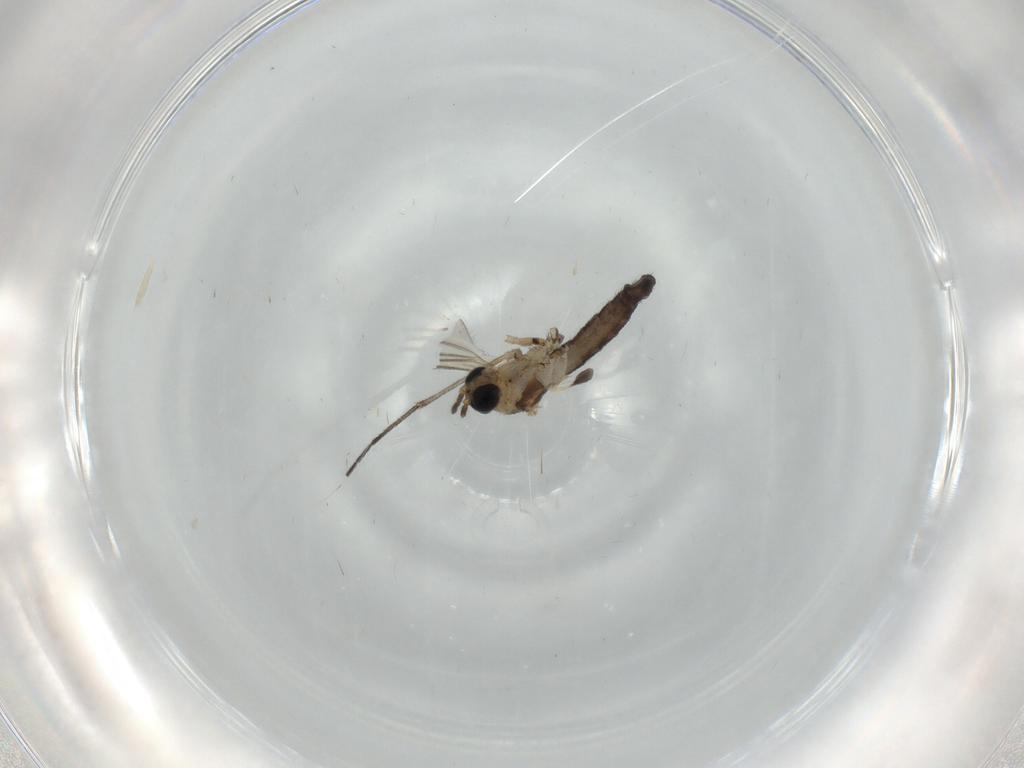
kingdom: Animalia
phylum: Arthropoda
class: Insecta
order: Diptera
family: Sciaridae
